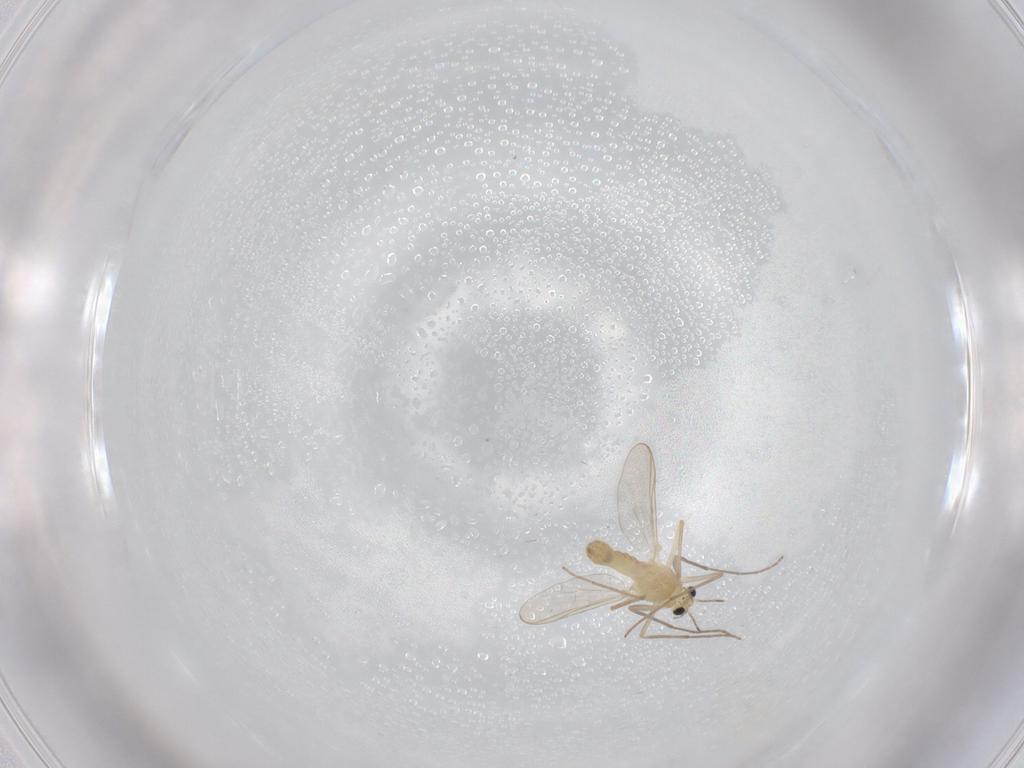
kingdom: Animalia
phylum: Arthropoda
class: Insecta
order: Diptera
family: Chironomidae
